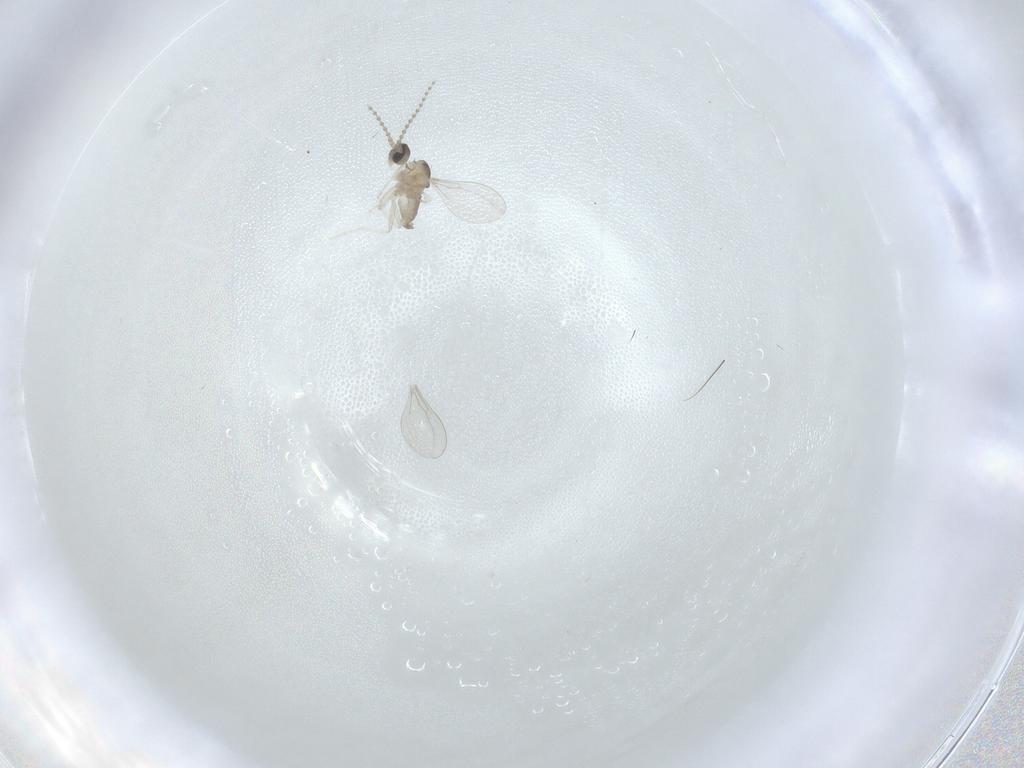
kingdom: Animalia
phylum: Arthropoda
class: Insecta
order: Diptera
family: Cecidomyiidae
